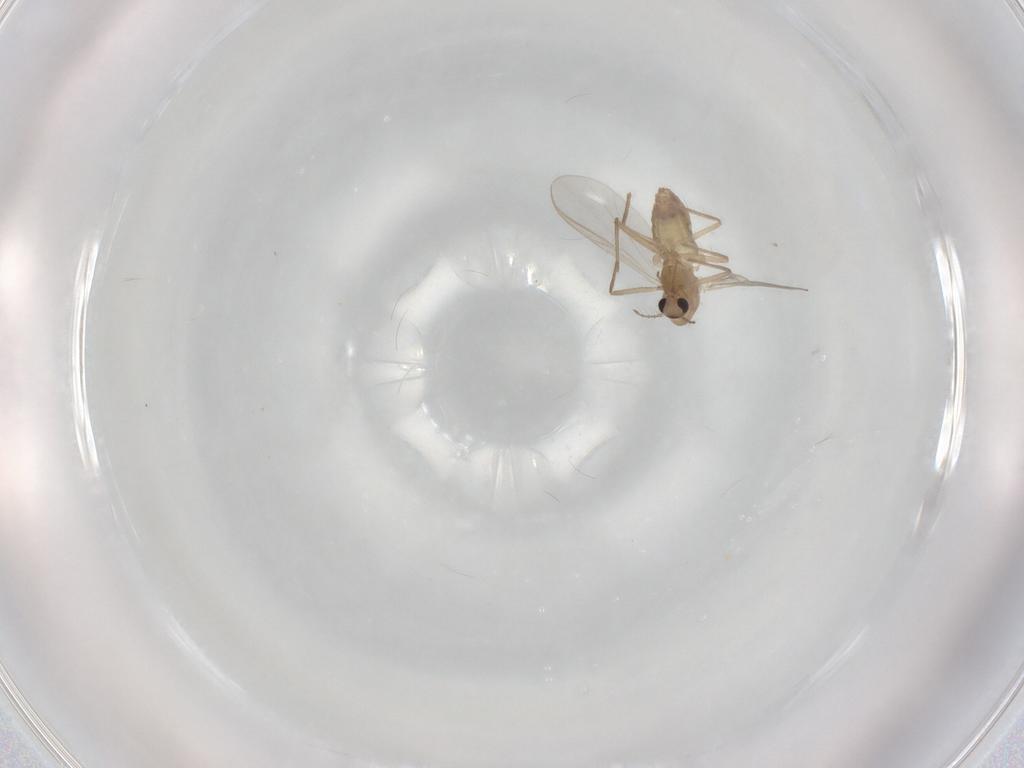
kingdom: Animalia
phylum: Arthropoda
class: Insecta
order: Diptera
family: Chironomidae
